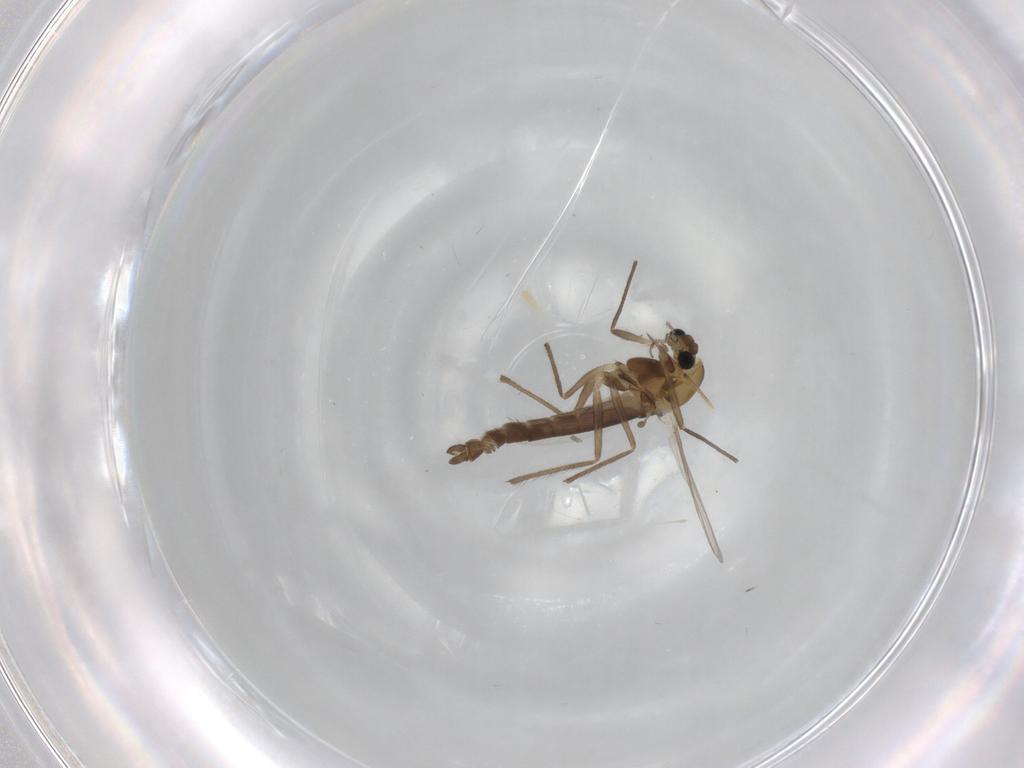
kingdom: Animalia
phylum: Arthropoda
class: Insecta
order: Diptera
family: Chironomidae
